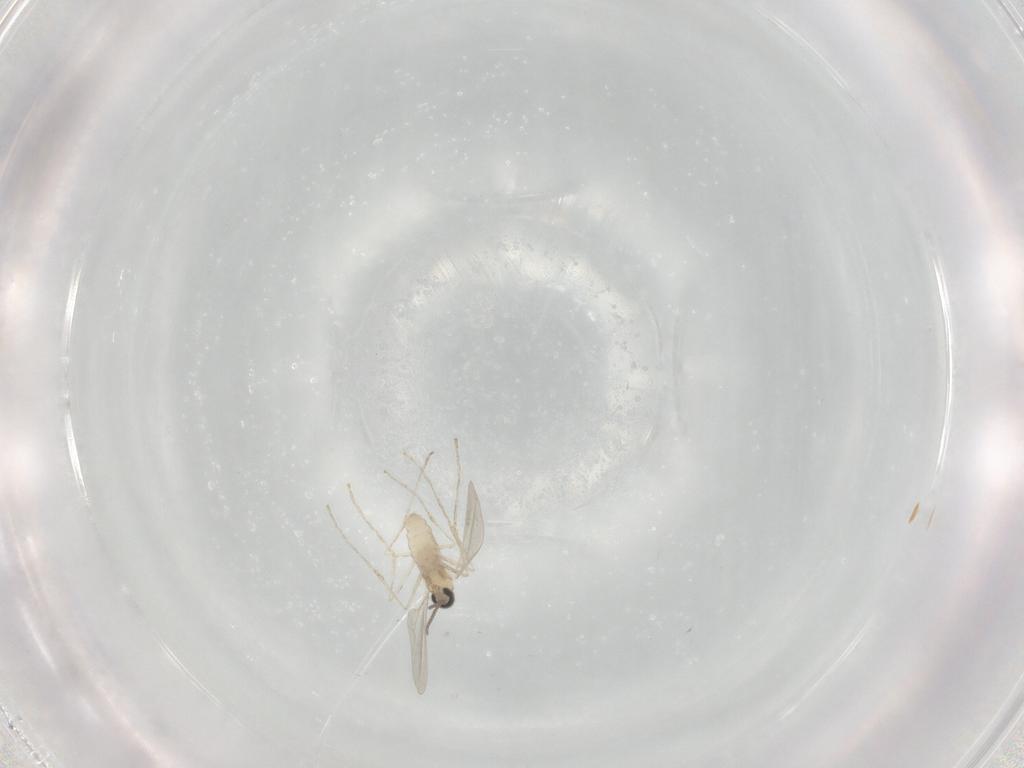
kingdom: Animalia
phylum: Arthropoda
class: Insecta
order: Diptera
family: Cecidomyiidae
